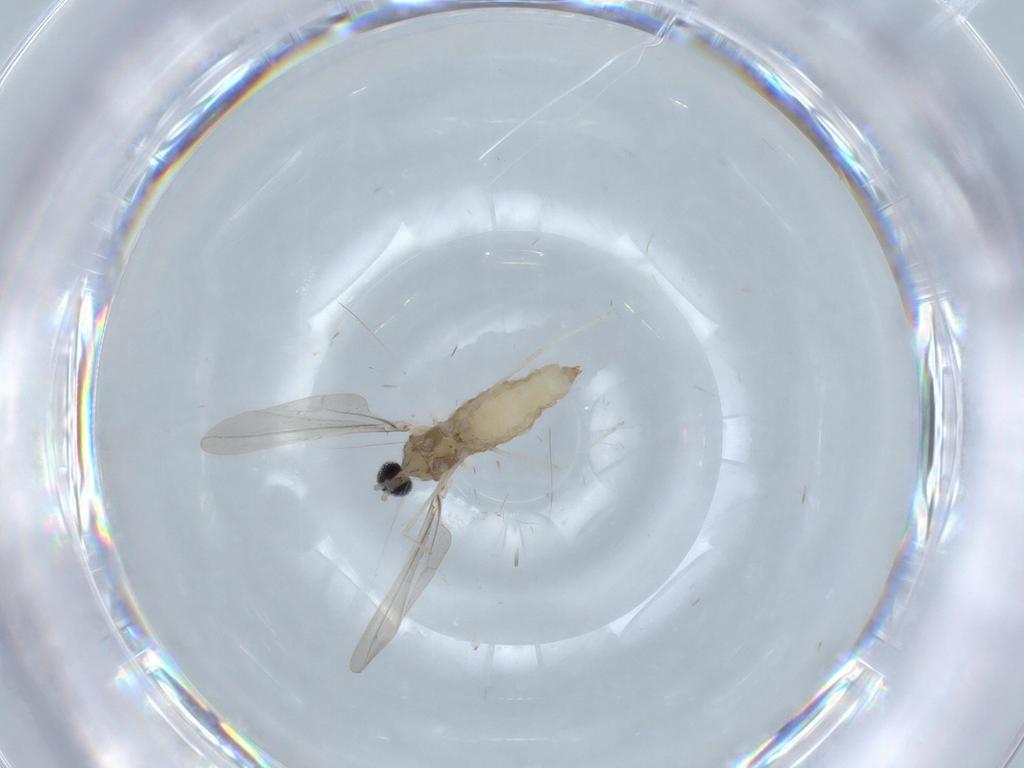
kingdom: Animalia
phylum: Arthropoda
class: Insecta
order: Diptera
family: Cecidomyiidae
